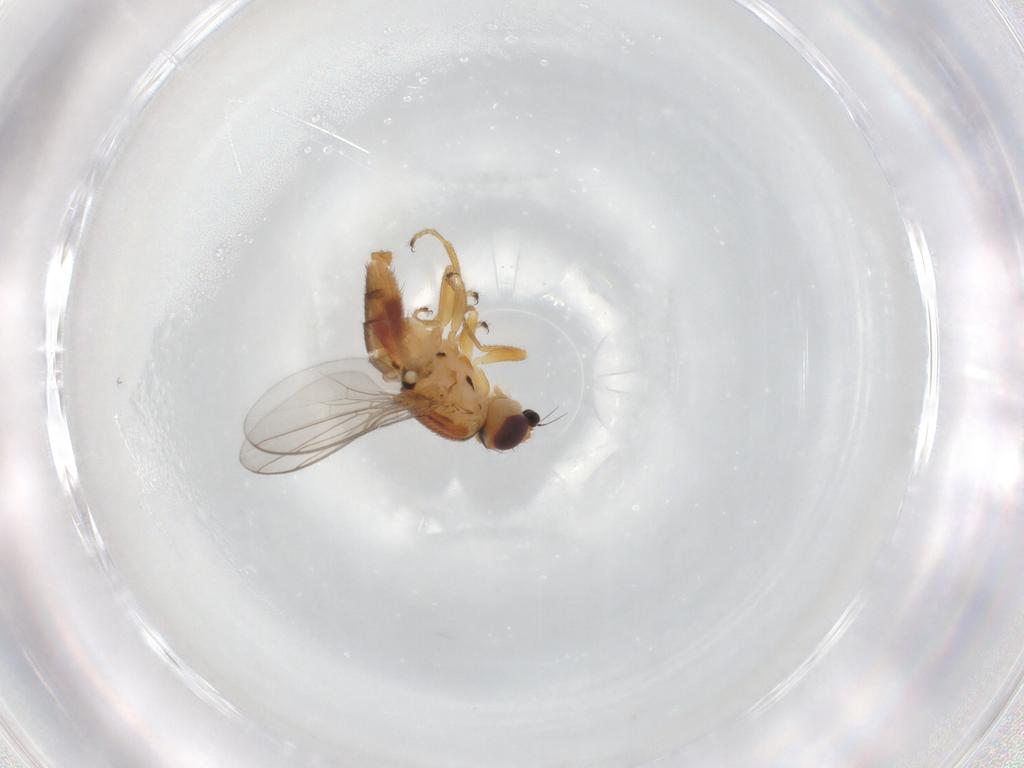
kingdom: Animalia
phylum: Arthropoda
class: Insecta
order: Diptera
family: Chloropidae
